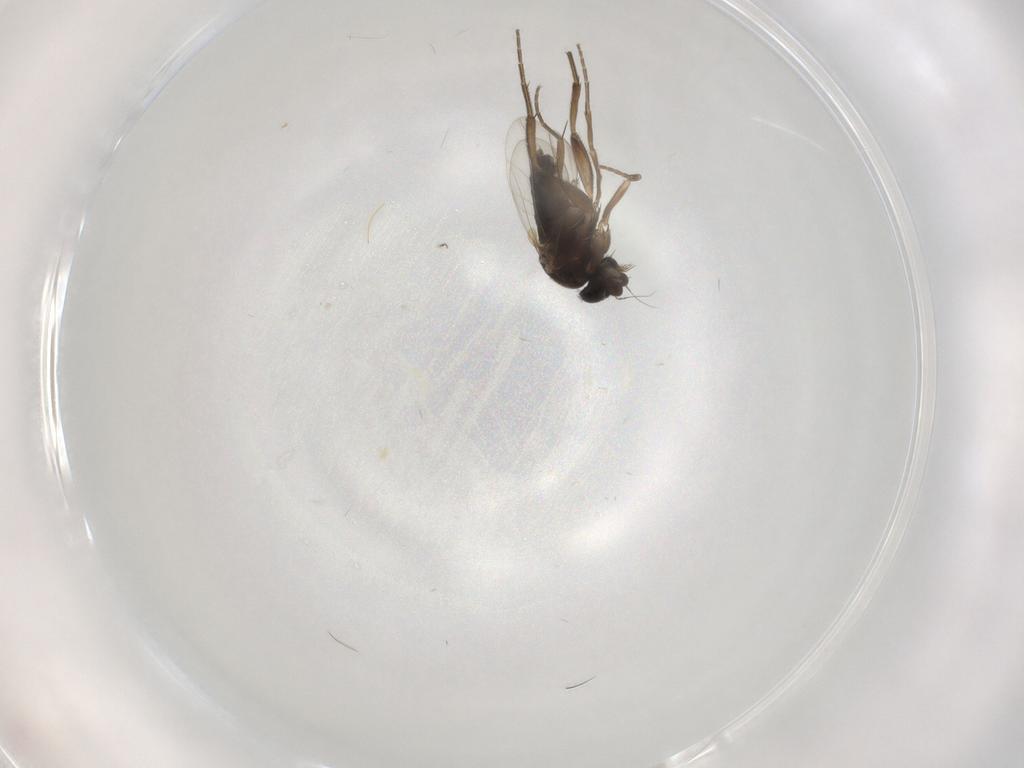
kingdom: Animalia
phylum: Arthropoda
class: Insecta
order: Diptera
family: Phoridae
